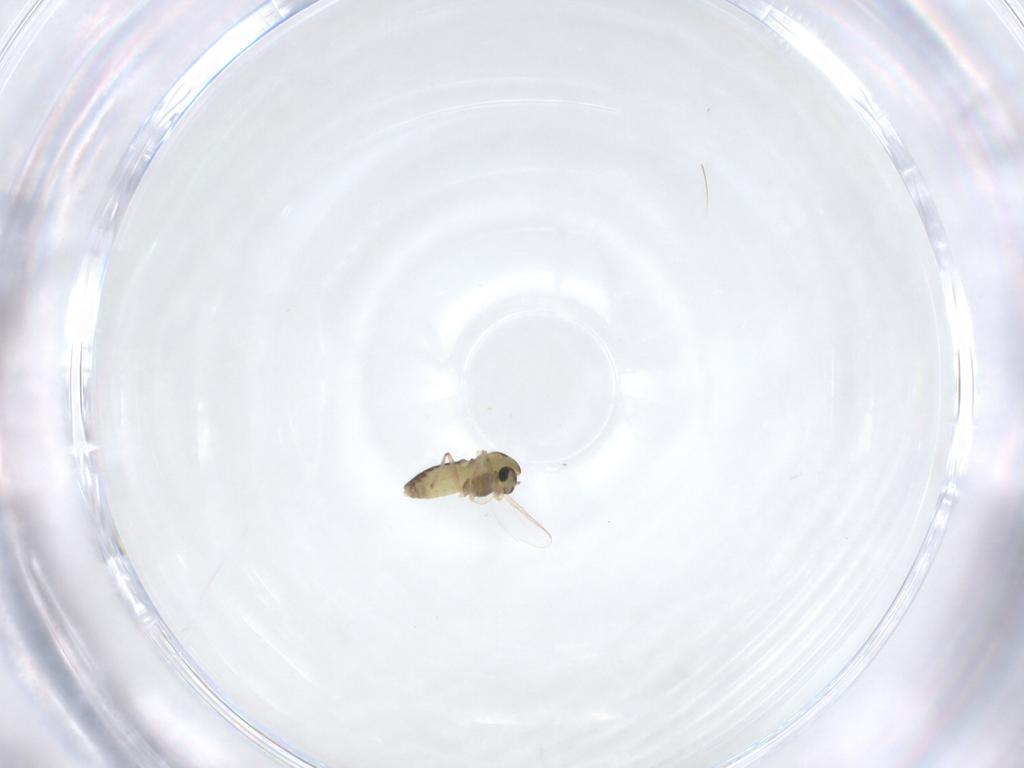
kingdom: Animalia
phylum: Arthropoda
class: Insecta
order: Diptera
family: Chironomidae
